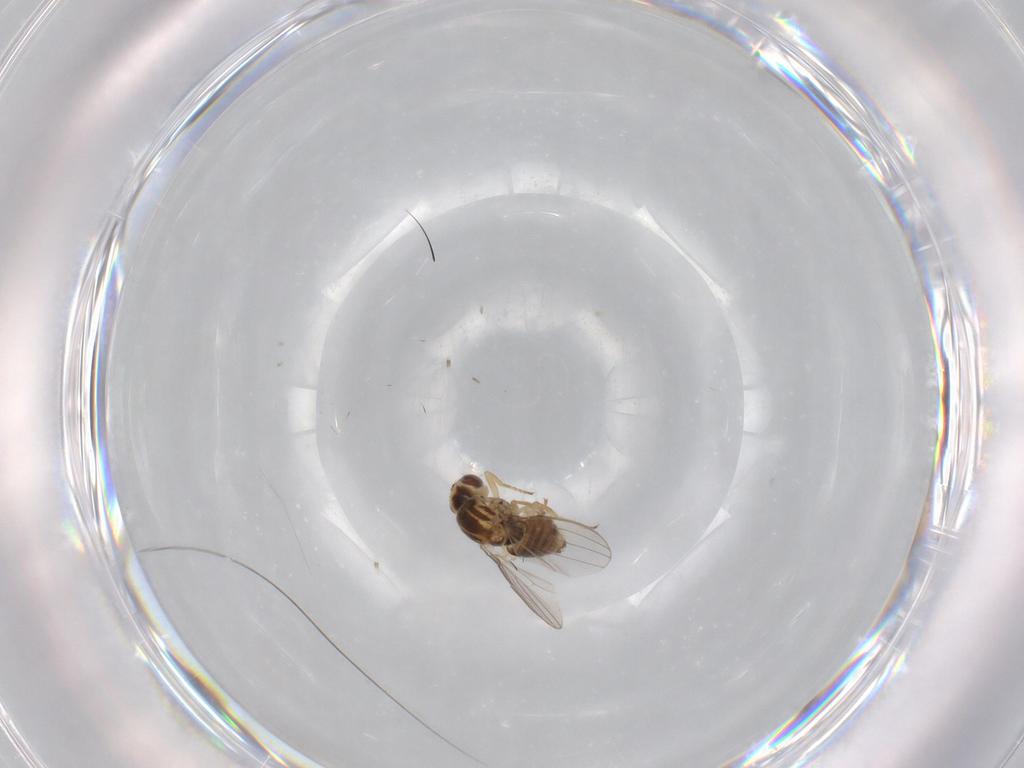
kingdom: Animalia
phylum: Arthropoda
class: Insecta
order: Diptera
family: Chyromyidae
